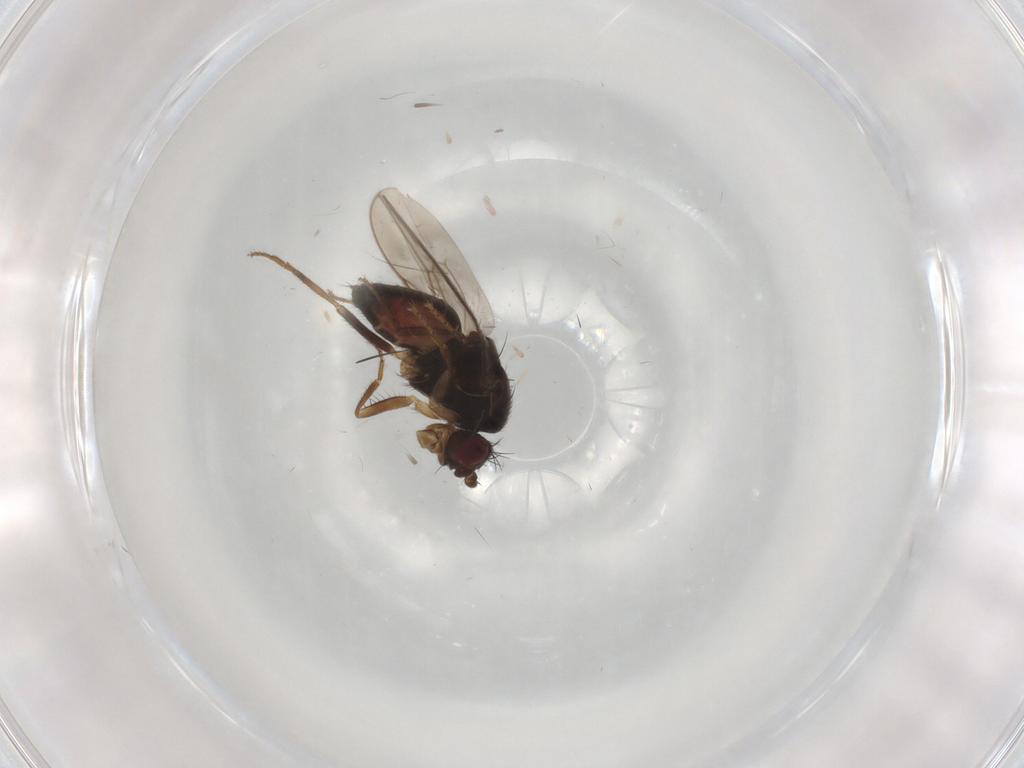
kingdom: Animalia
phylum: Arthropoda
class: Insecta
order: Diptera
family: Sphaeroceridae
